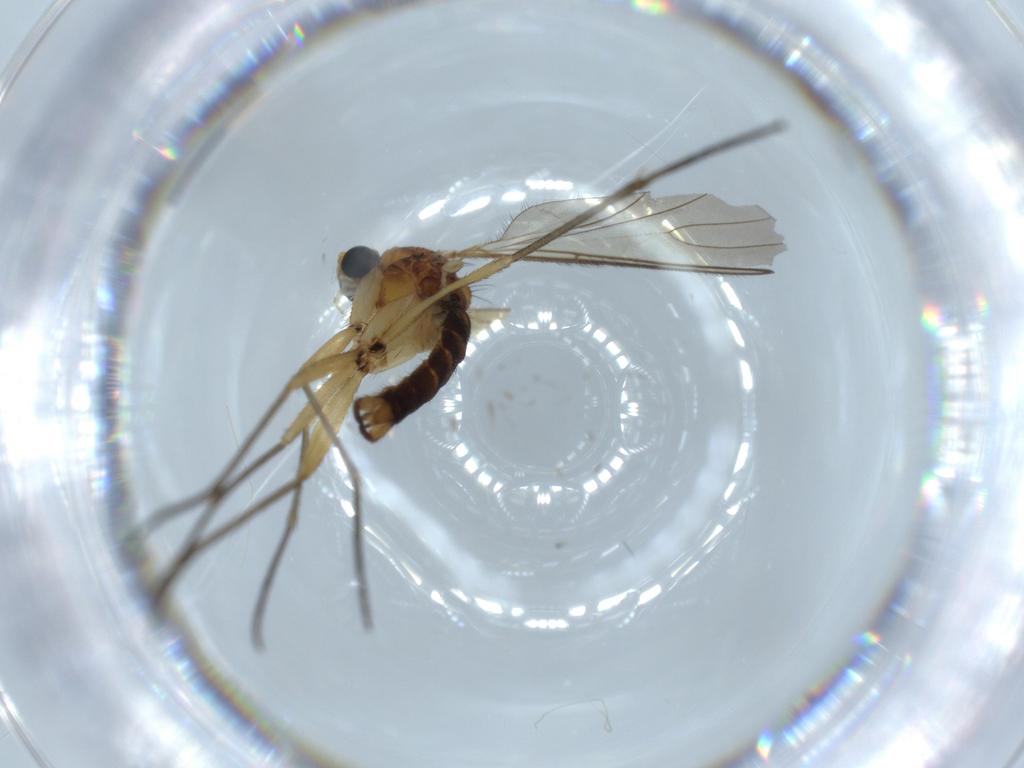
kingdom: Animalia
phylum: Arthropoda
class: Insecta
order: Diptera
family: Sciaridae
